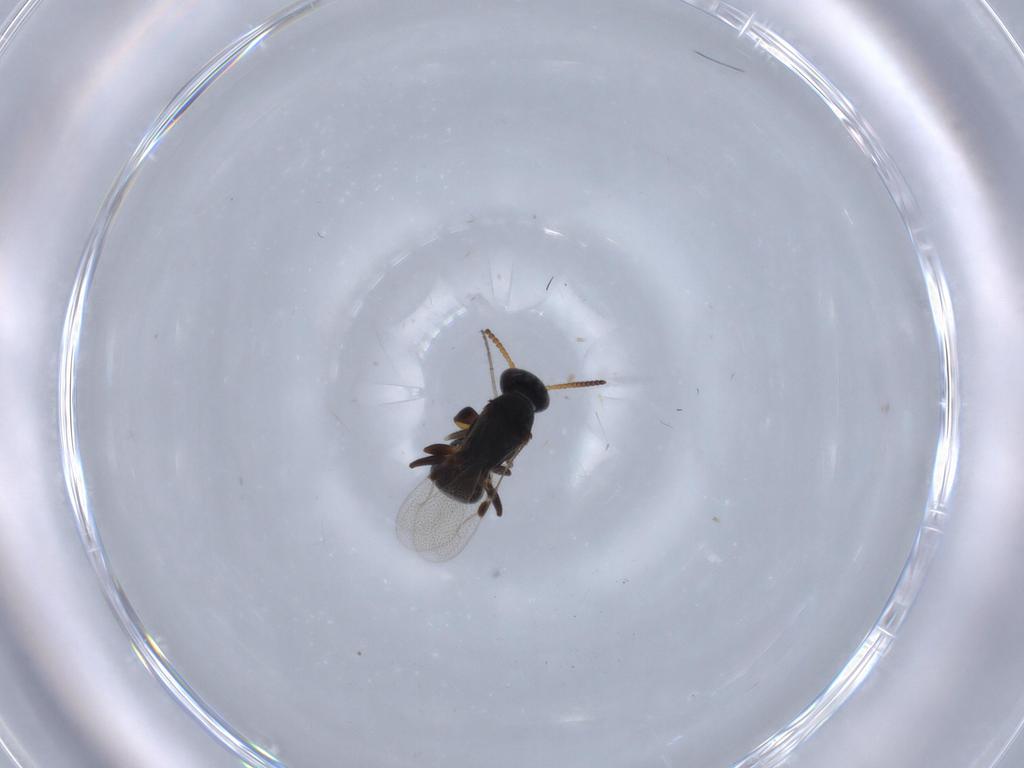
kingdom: Animalia
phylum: Arthropoda
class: Insecta
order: Hymenoptera
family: Bethylidae
